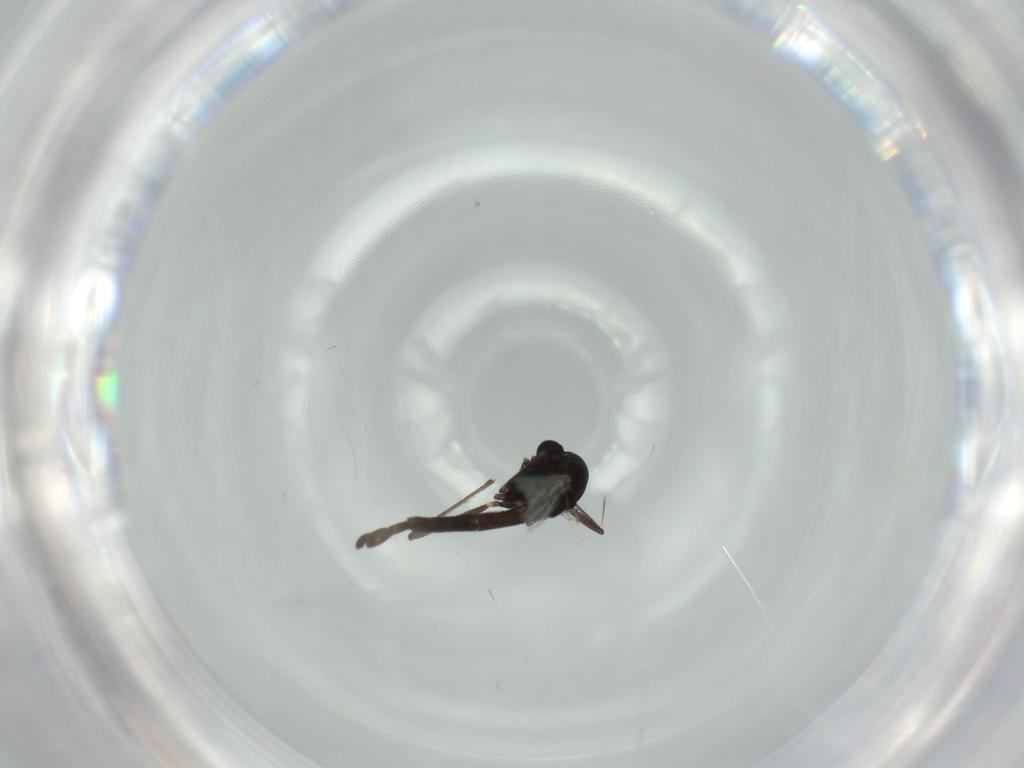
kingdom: Animalia
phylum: Arthropoda
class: Insecta
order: Diptera
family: Chironomidae
